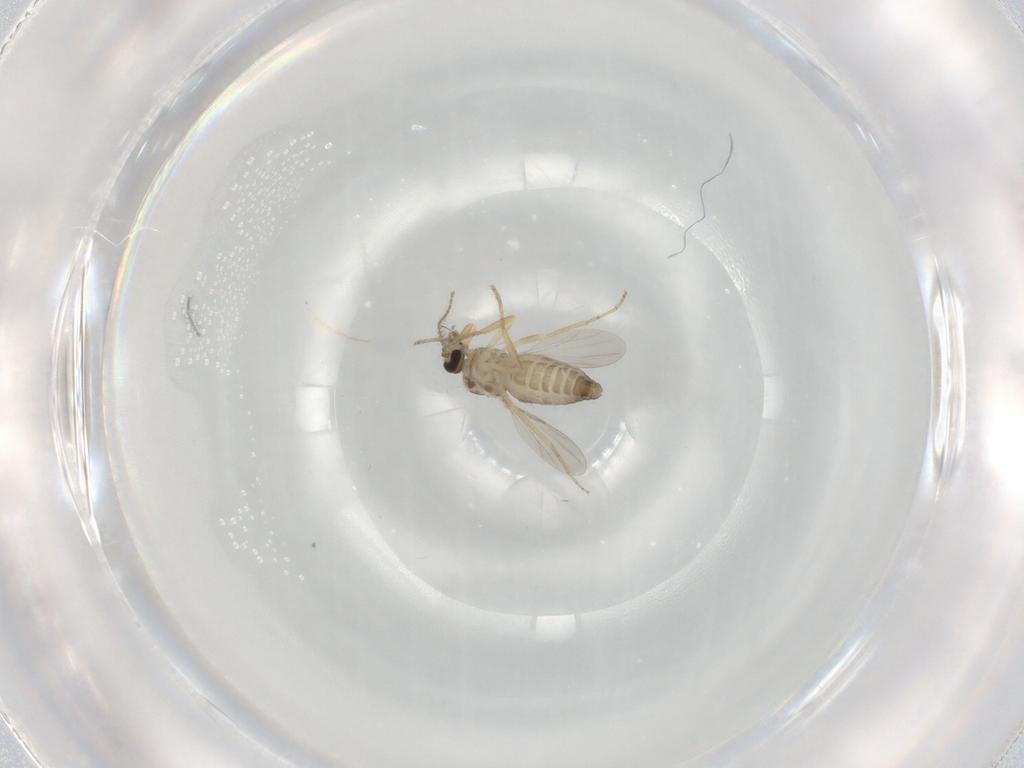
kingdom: Animalia
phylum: Arthropoda
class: Insecta
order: Diptera
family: Ceratopogonidae
